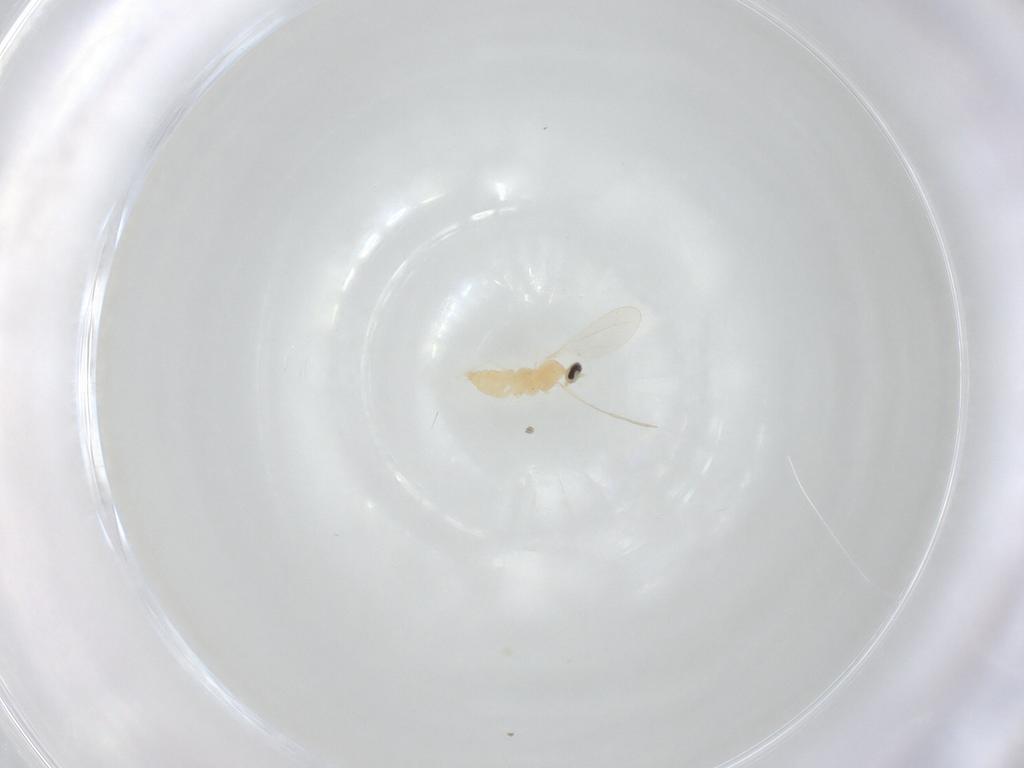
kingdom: Animalia
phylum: Arthropoda
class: Insecta
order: Diptera
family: Cecidomyiidae
